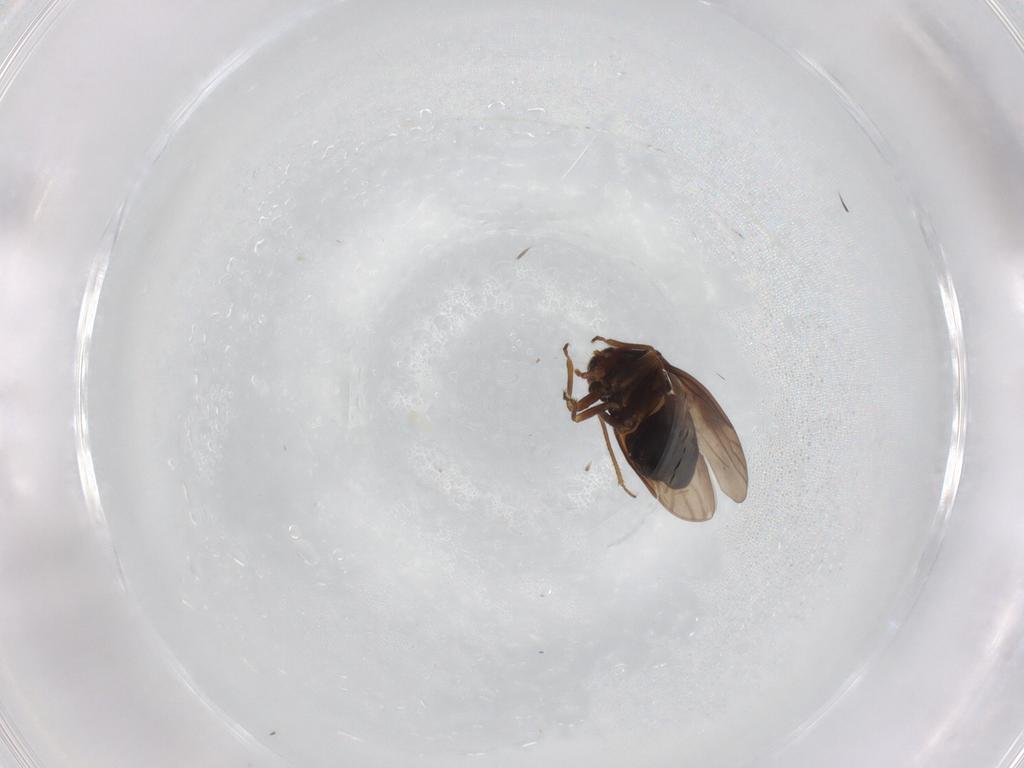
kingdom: Animalia
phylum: Arthropoda
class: Insecta
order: Hemiptera
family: Aleyrodidae
